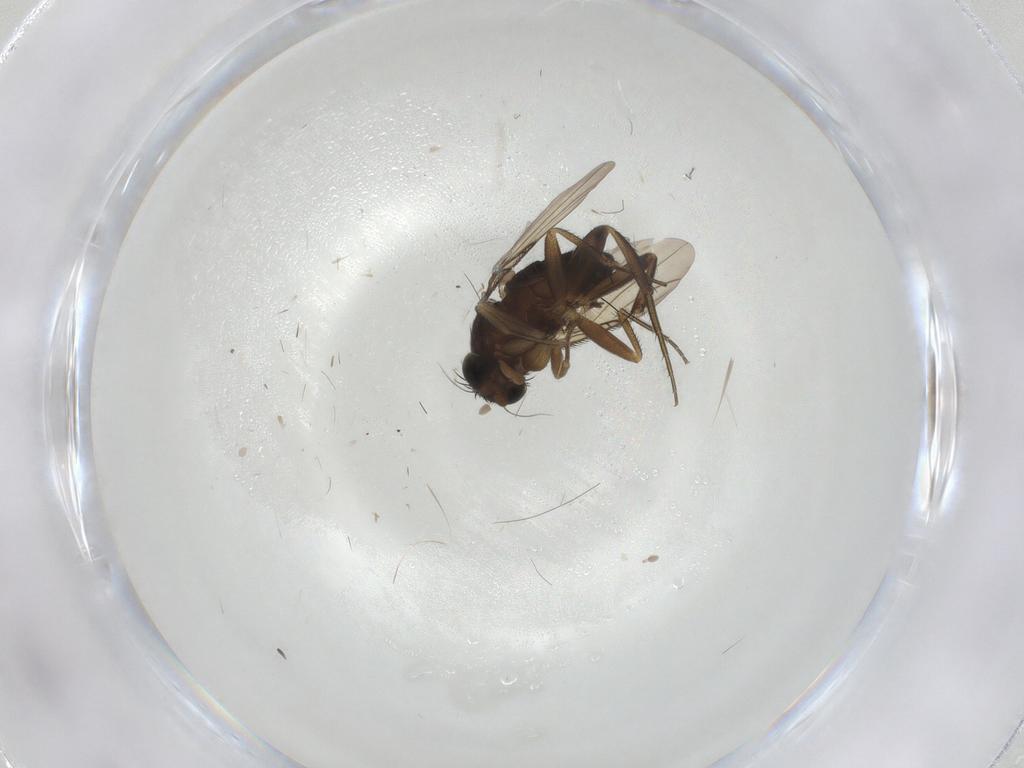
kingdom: Animalia
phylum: Arthropoda
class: Insecta
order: Diptera
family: Phoridae
